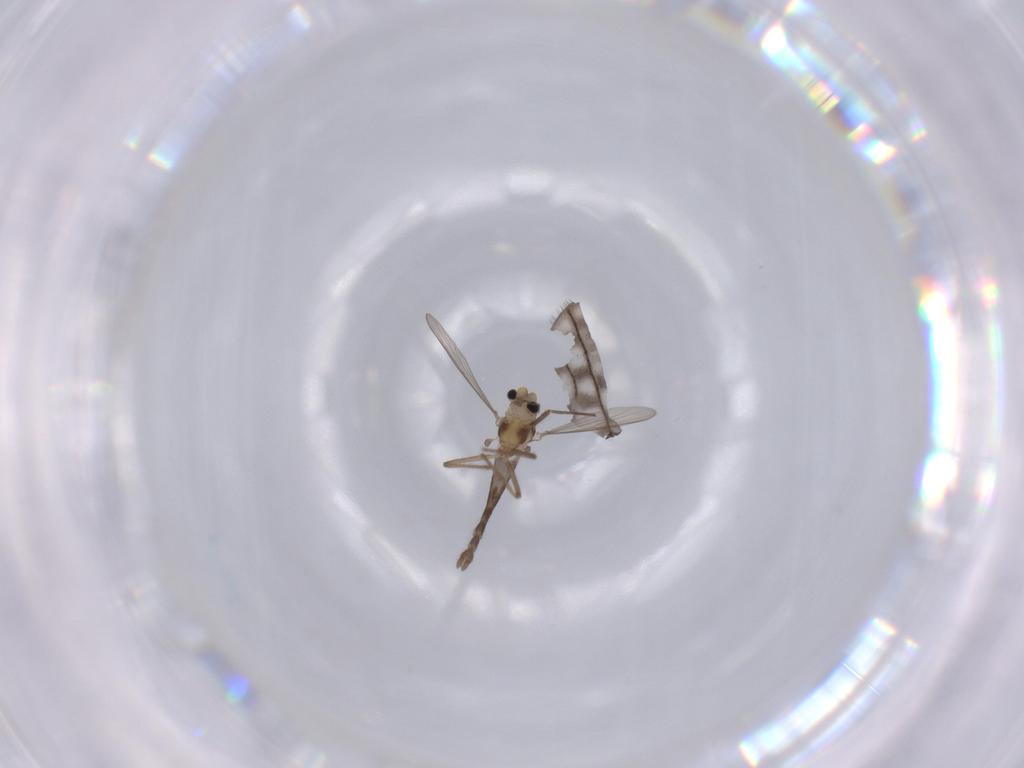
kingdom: Animalia
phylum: Arthropoda
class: Insecta
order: Diptera
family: Chironomidae
